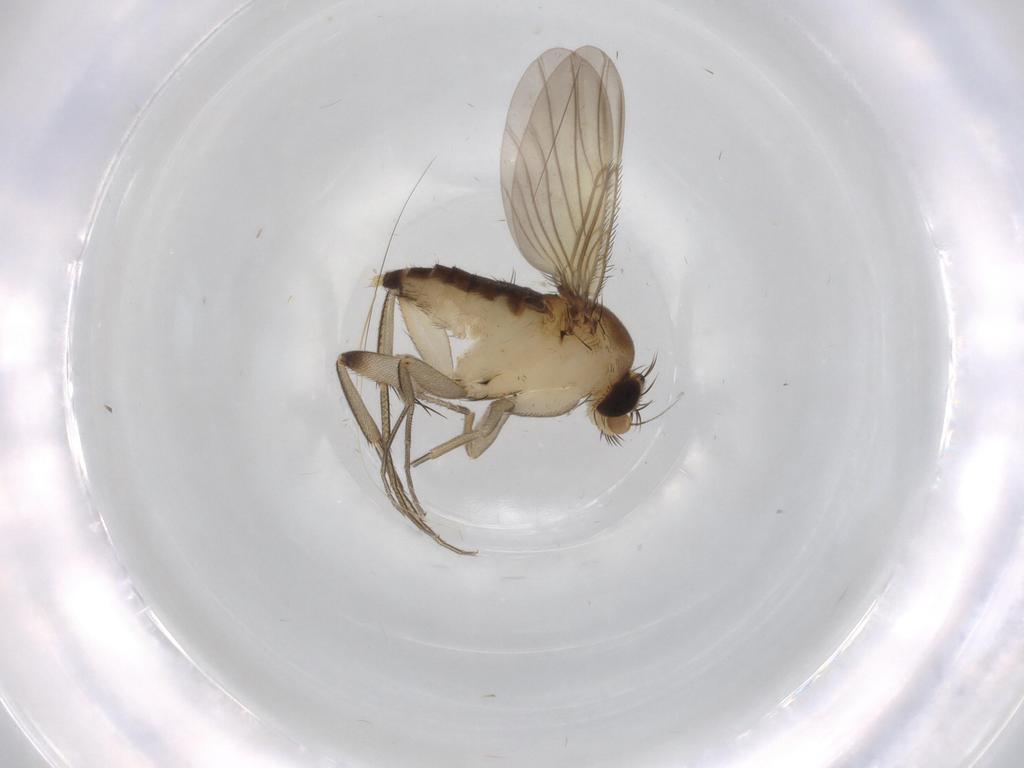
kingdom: Animalia
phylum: Arthropoda
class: Insecta
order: Diptera
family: Phoridae
